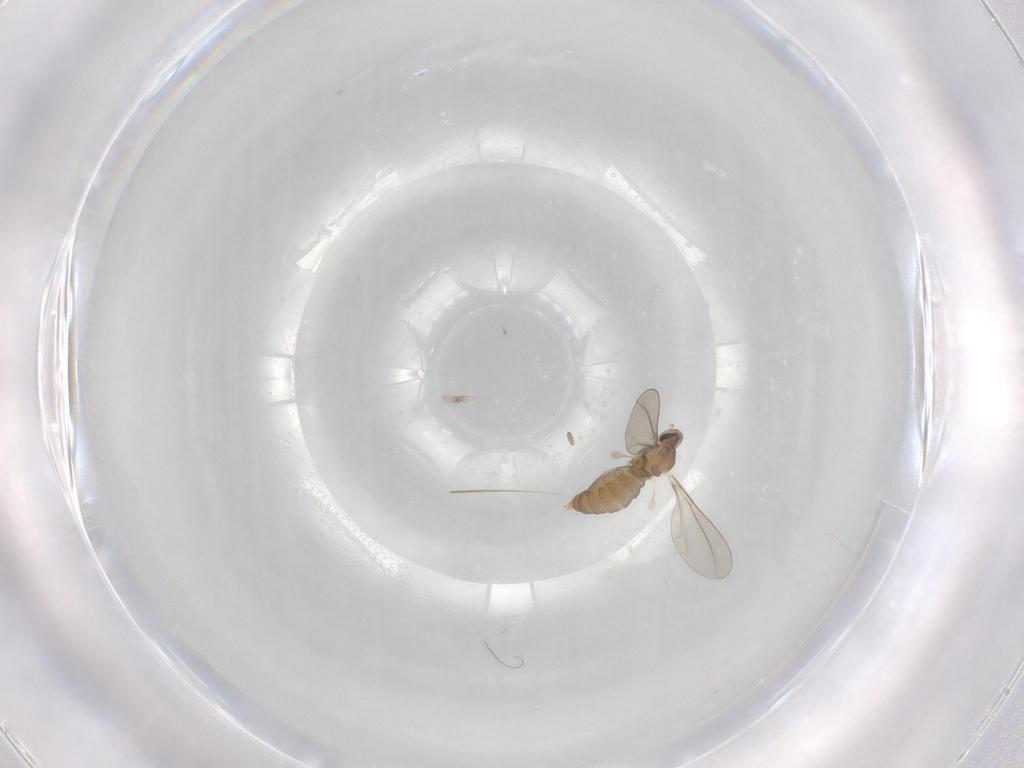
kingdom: Animalia
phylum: Arthropoda
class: Insecta
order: Diptera
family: Cecidomyiidae
